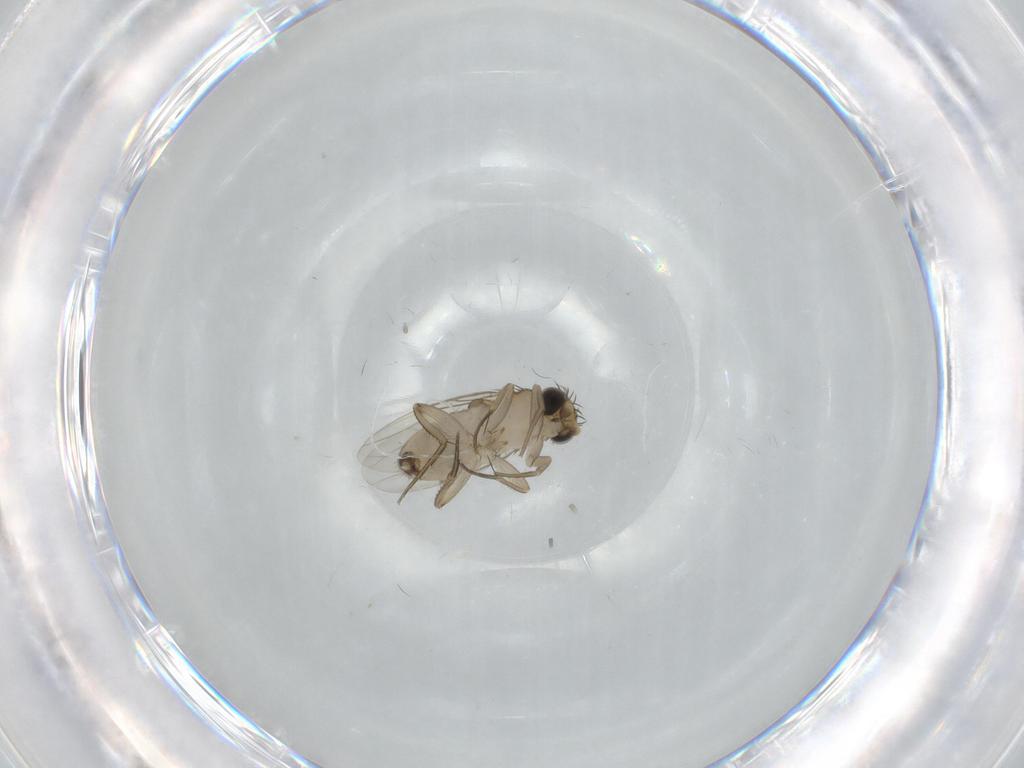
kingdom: Animalia
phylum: Arthropoda
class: Insecta
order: Diptera
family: Phoridae
